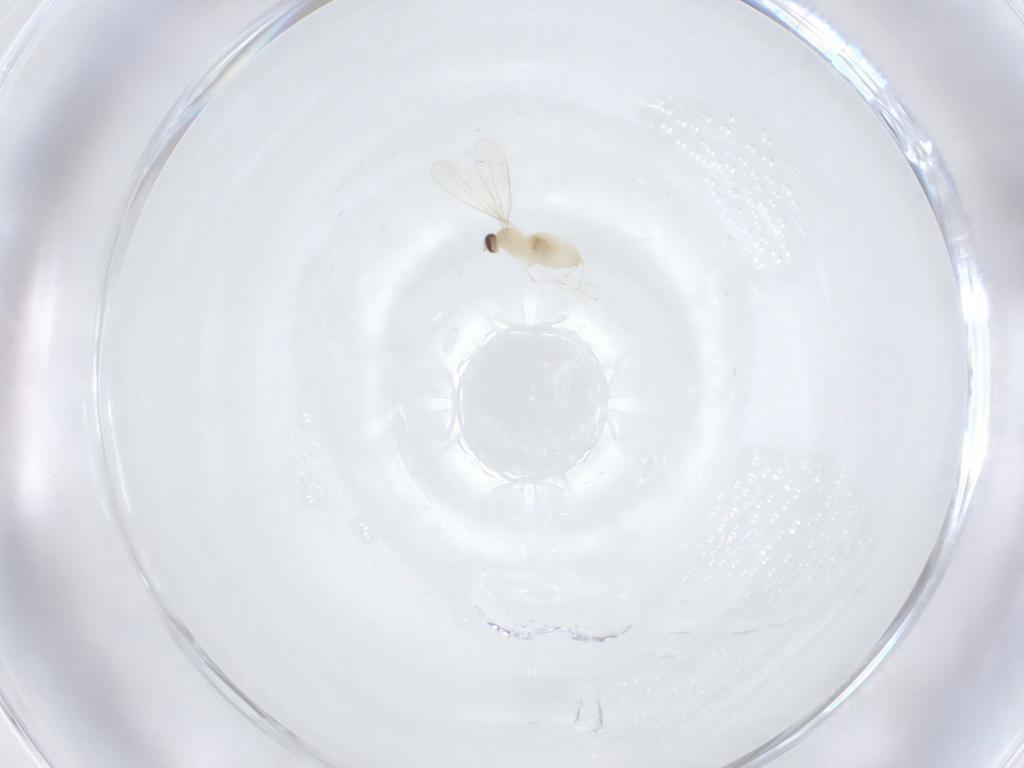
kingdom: Animalia
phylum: Arthropoda
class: Insecta
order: Diptera
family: Cecidomyiidae
